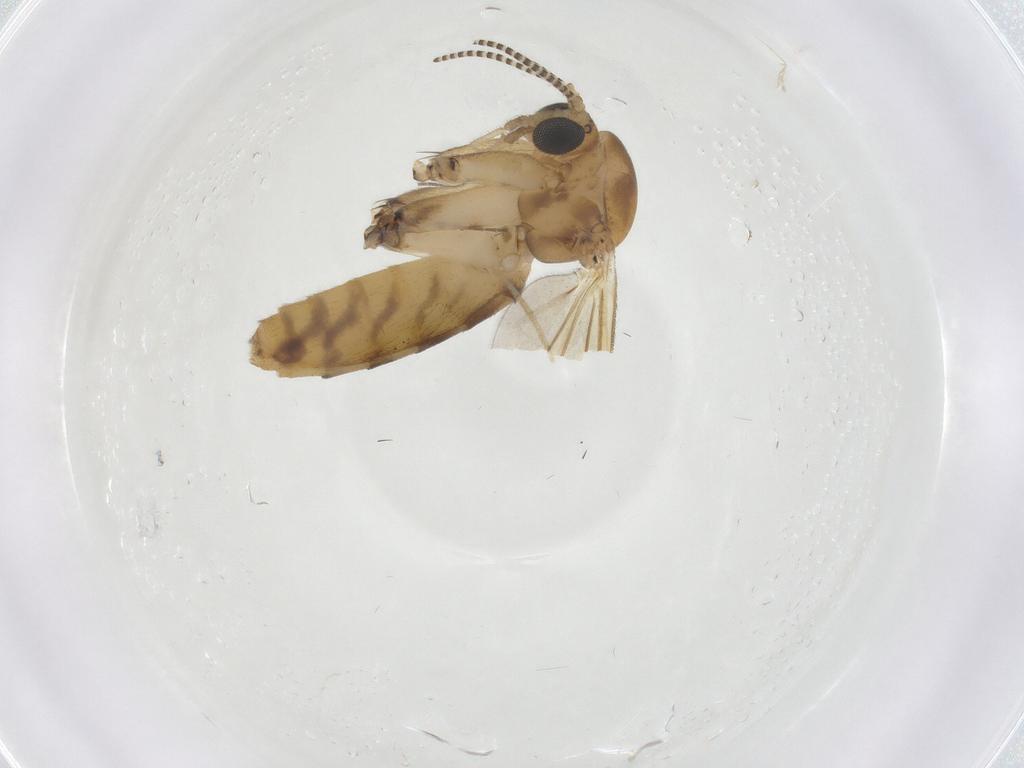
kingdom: Animalia
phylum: Arthropoda
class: Insecta
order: Diptera
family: Mycetophilidae
